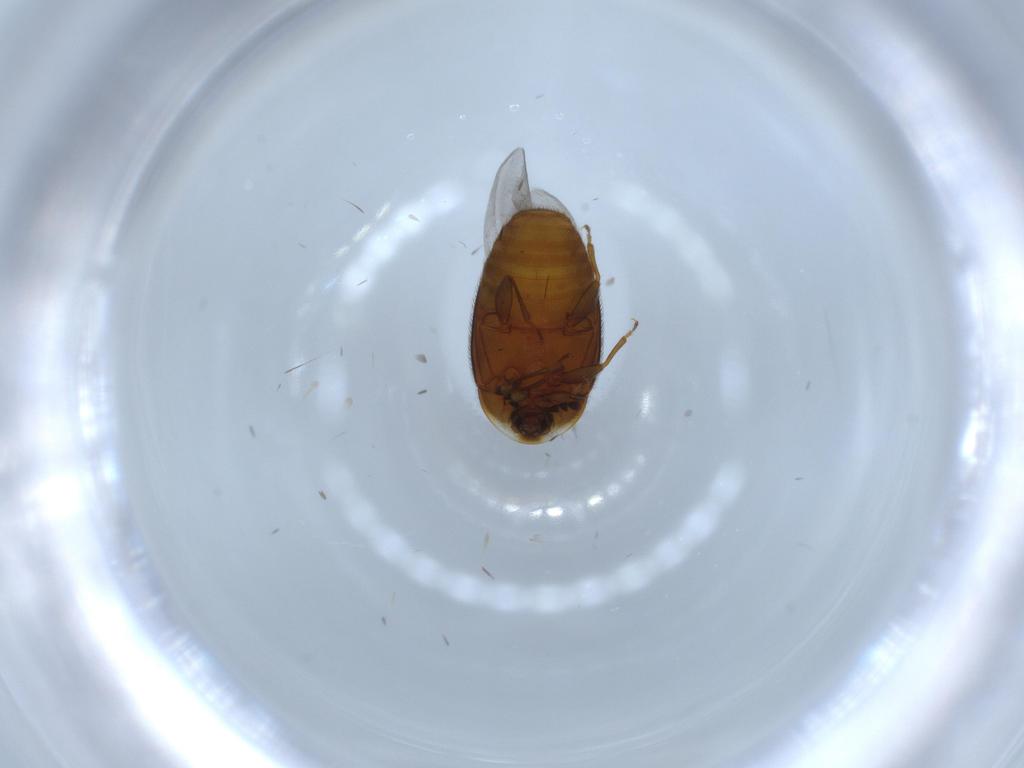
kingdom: Animalia
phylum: Arthropoda
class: Insecta
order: Coleoptera
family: Corylophidae
